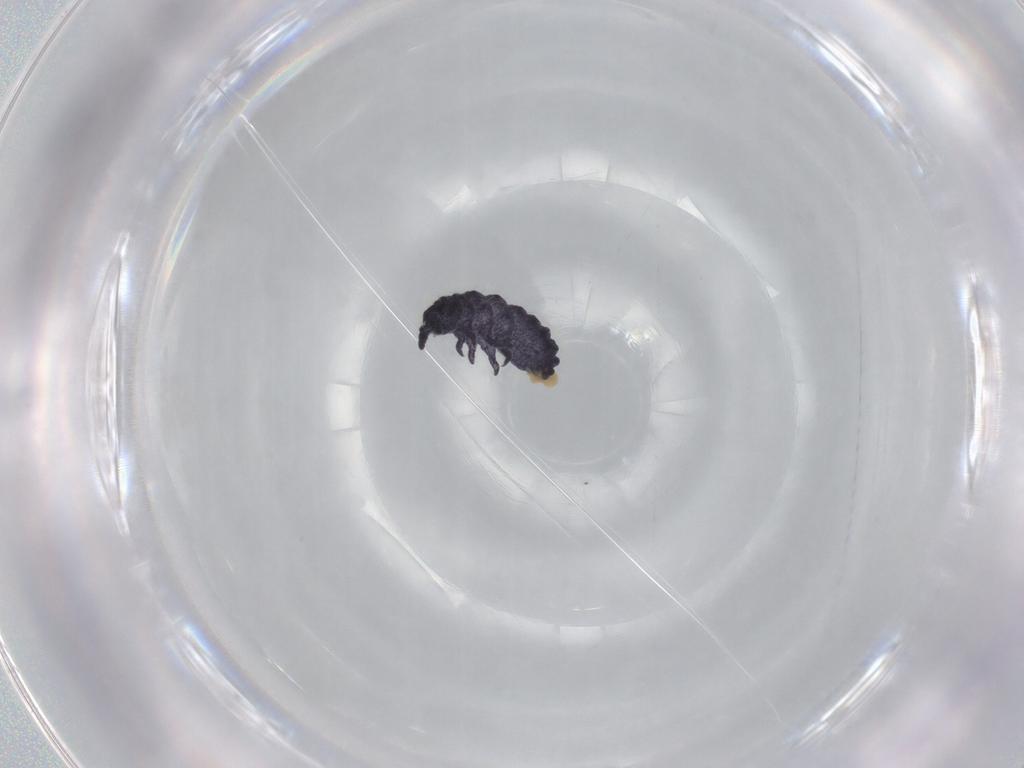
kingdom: Animalia
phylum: Arthropoda
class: Collembola
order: Poduromorpha
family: Neanuridae
